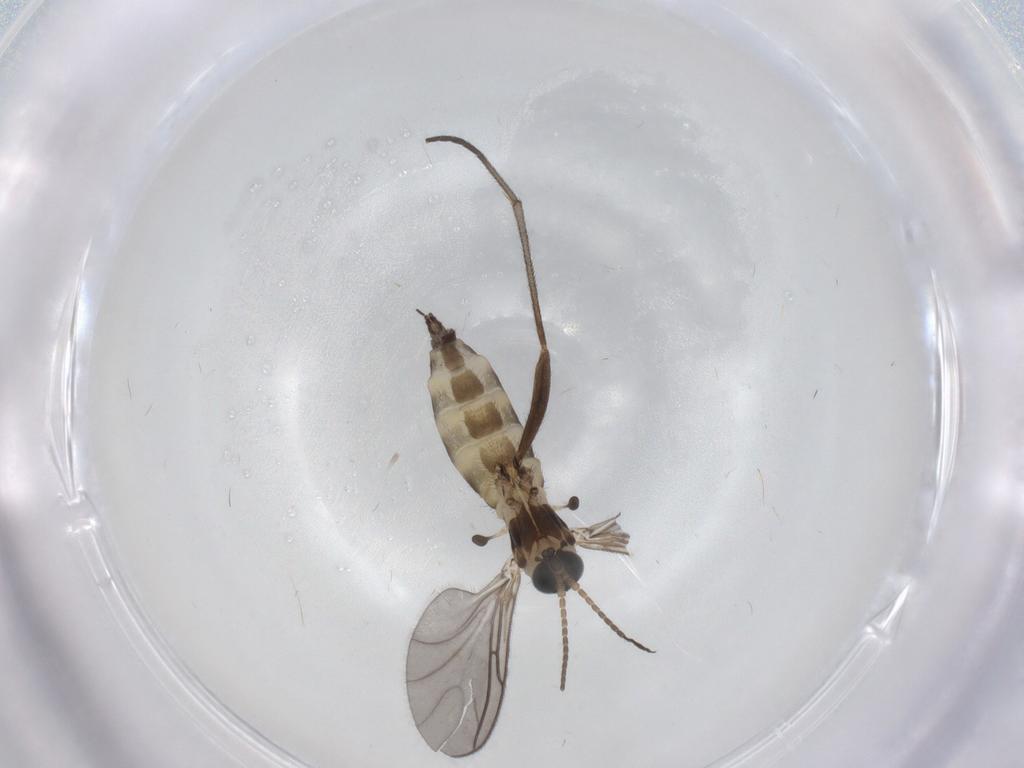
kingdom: Animalia
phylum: Arthropoda
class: Insecta
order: Diptera
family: Sciaridae
